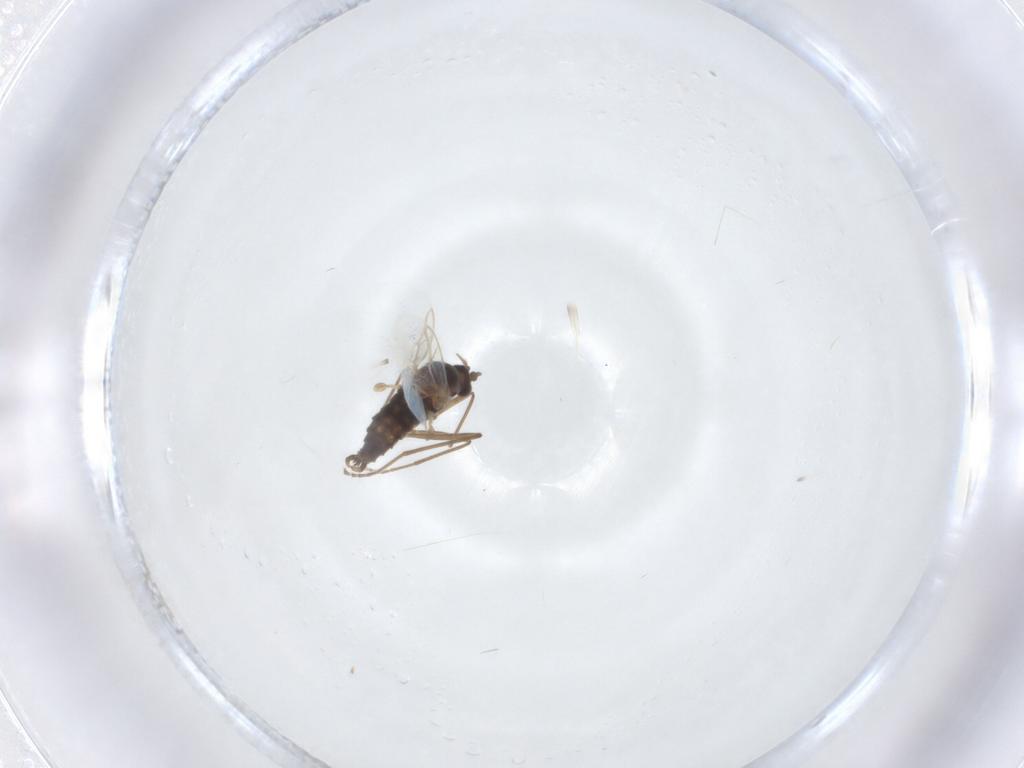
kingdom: Animalia
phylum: Arthropoda
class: Insecta
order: Diptera
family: Cecidomyiidae
